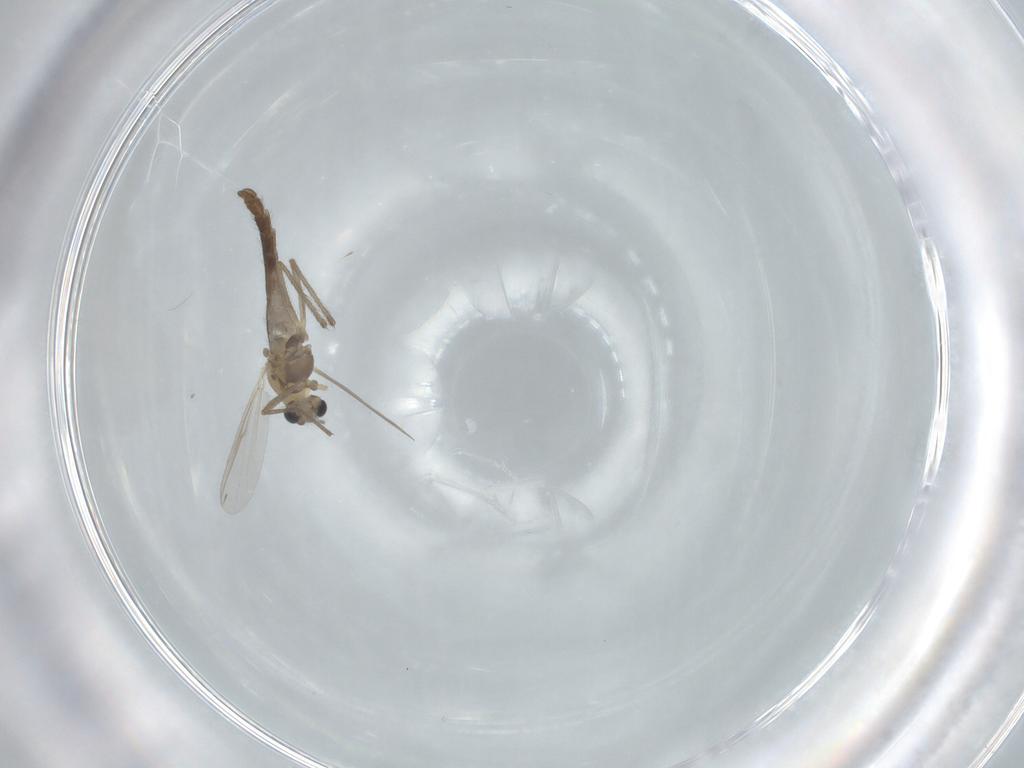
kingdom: Animalia
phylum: Arthropoda
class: Insecta
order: Diptera
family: Chironomidae
